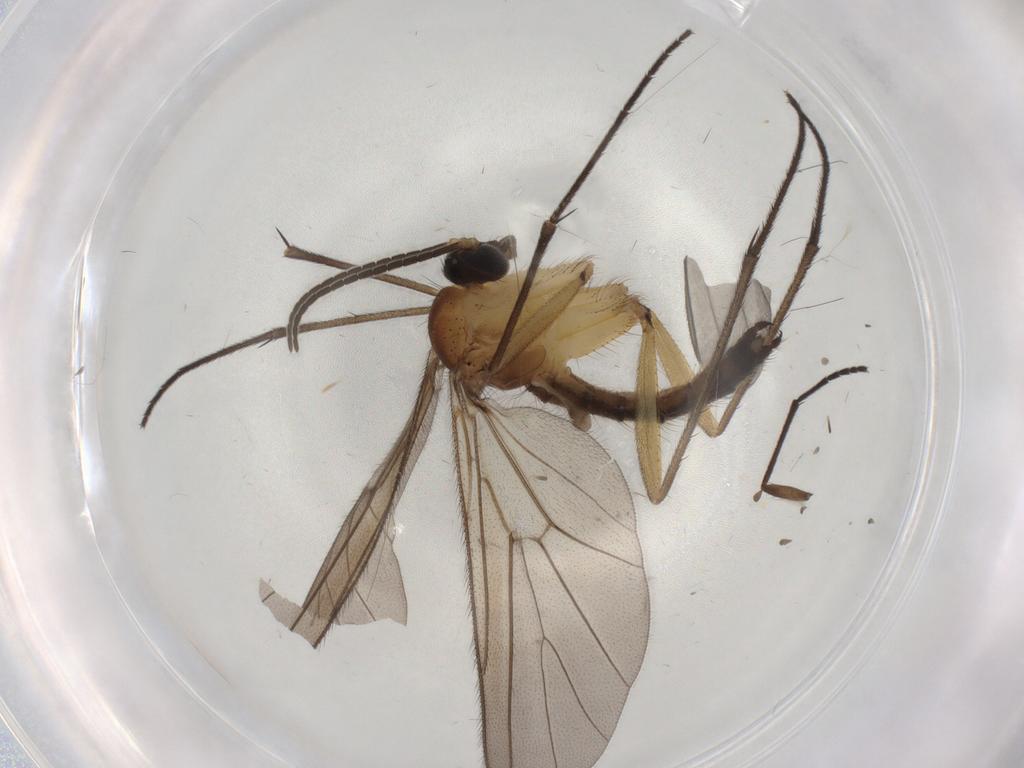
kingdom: Animalia
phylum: Arthropoda
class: Insecta
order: Diptera
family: Sciaridae
